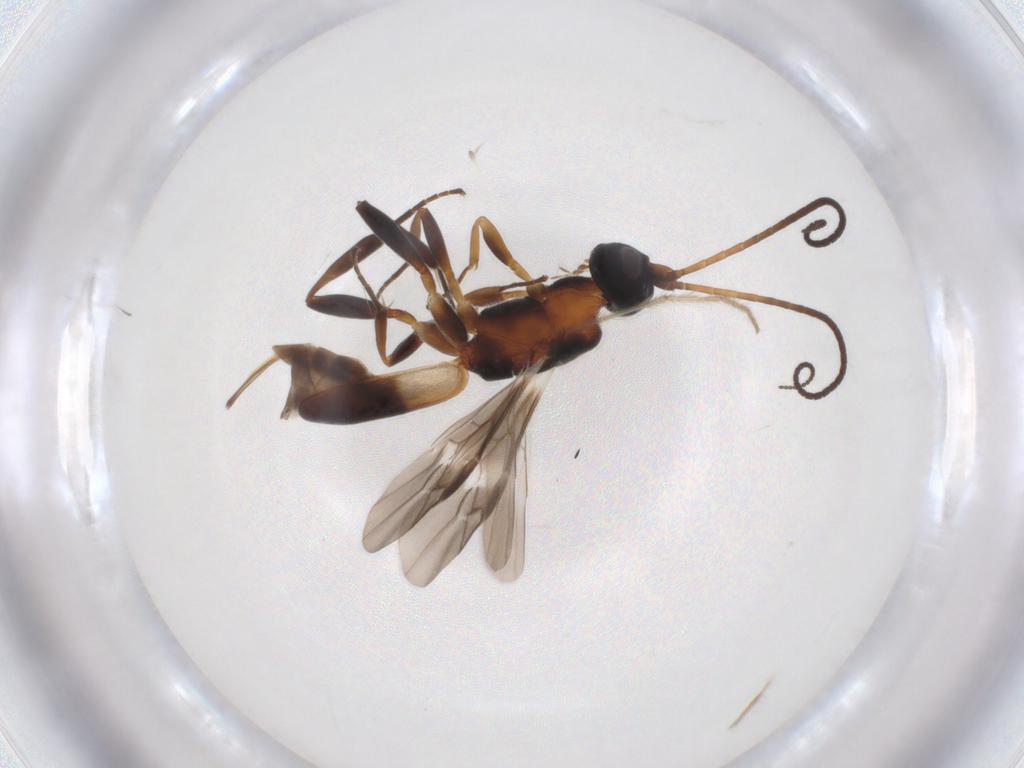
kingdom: Animalia
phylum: Arthropoda
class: Insecta
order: Hymenoptera
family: Braconidae
